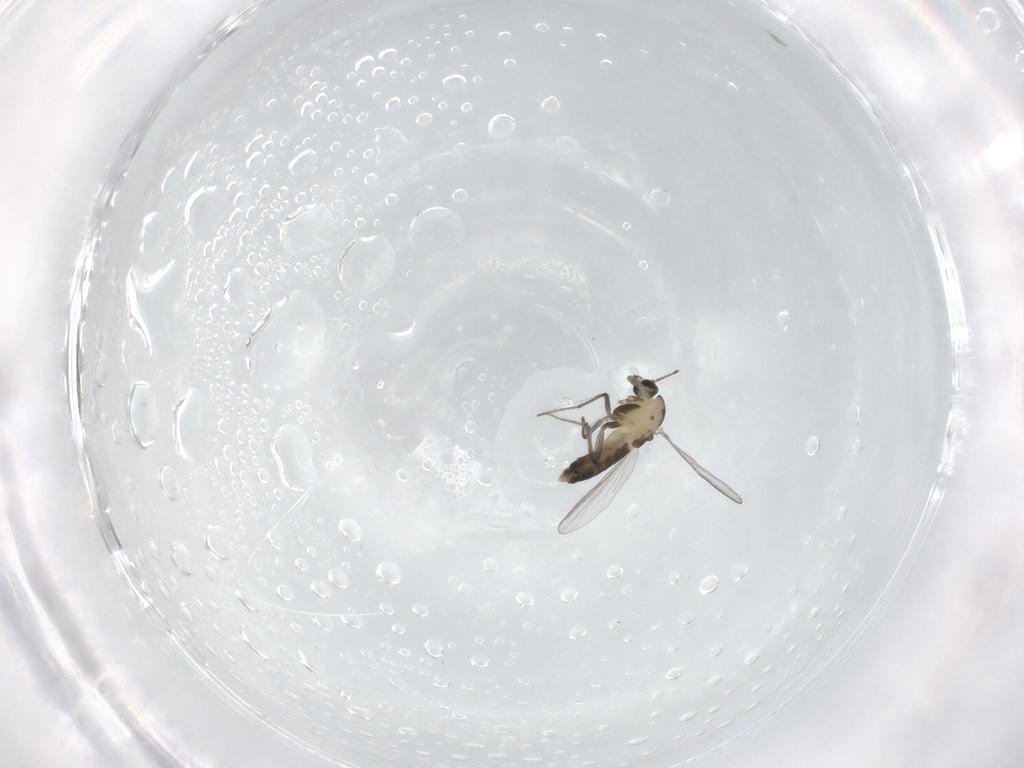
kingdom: Animalia
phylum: Arthropoda
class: Insecta
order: Diptera
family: Chironomidae
